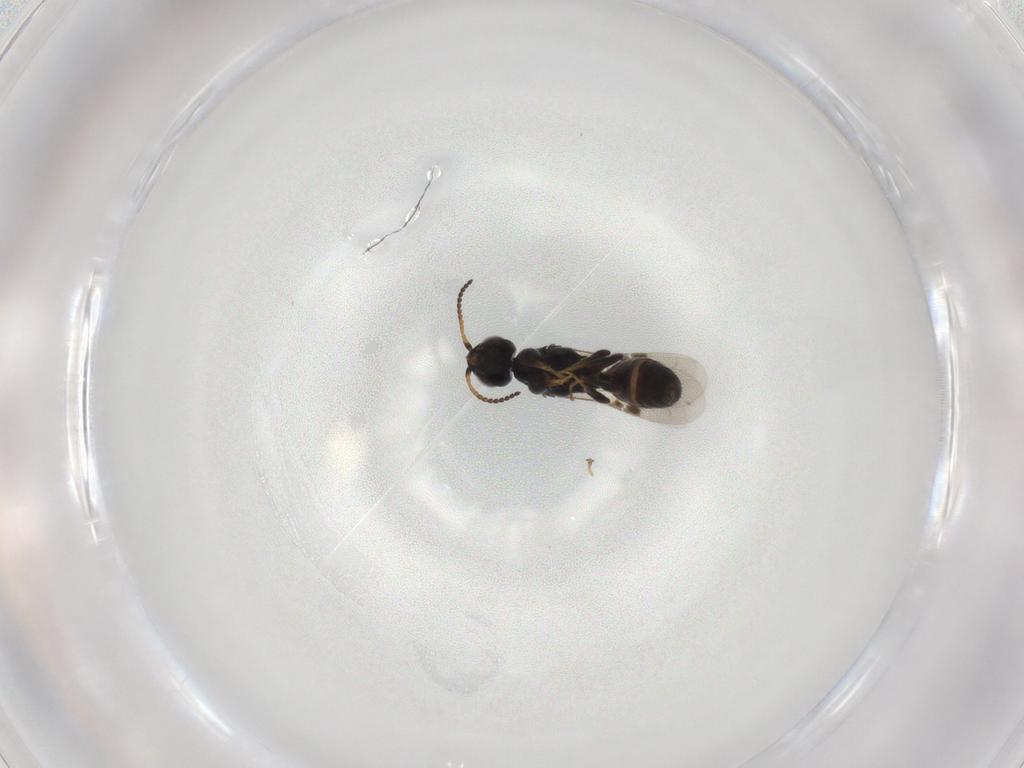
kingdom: Animalia
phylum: Arthropoda
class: Insecta
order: Hymenoptera
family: Bethylidae
